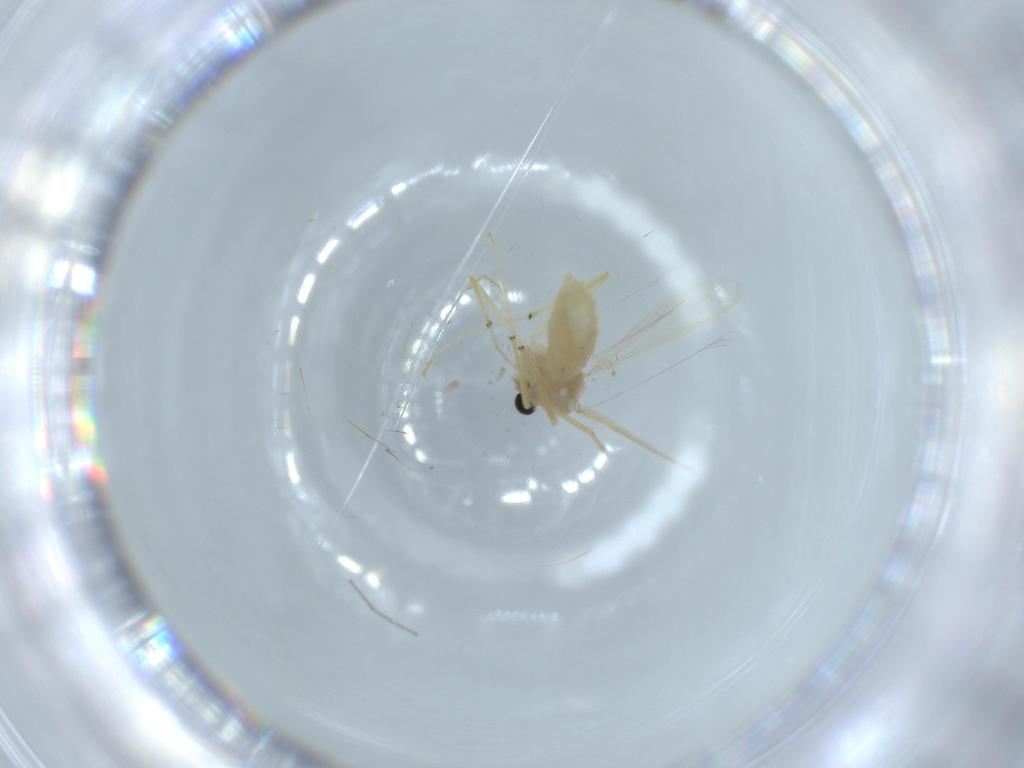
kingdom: Animalia
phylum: Arthropoda
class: Insecta
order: Diptera
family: Chironomidae
